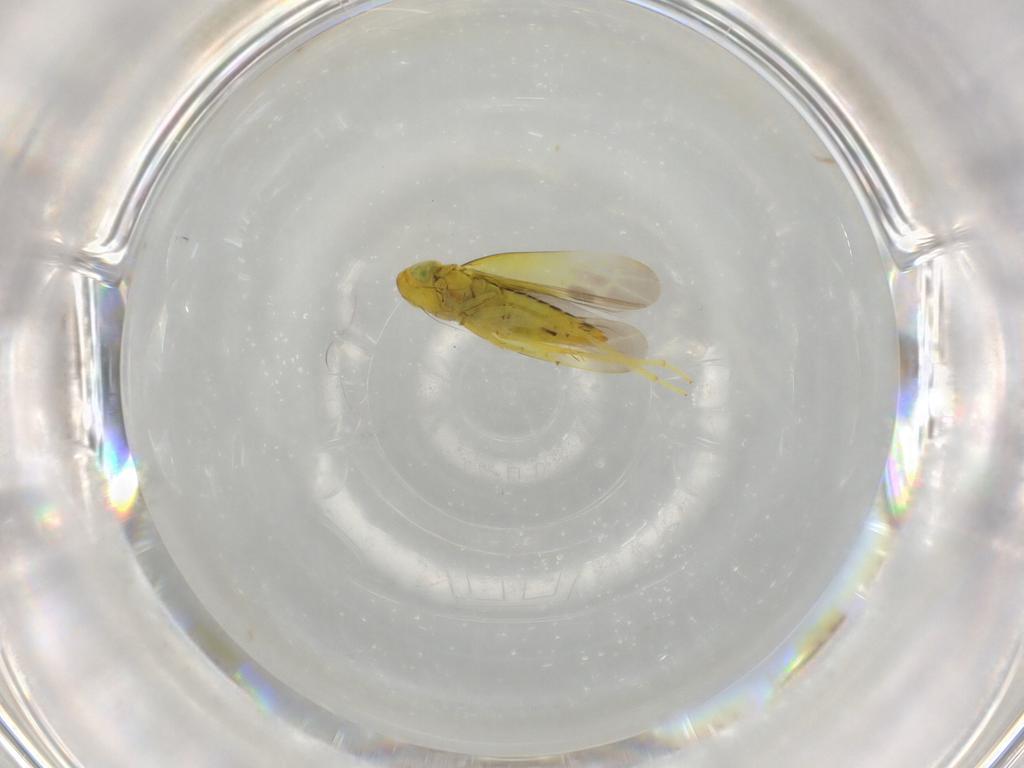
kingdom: Animalia
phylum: Arthropoda
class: Insecta
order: Hemiptera
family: Cicadellidae
